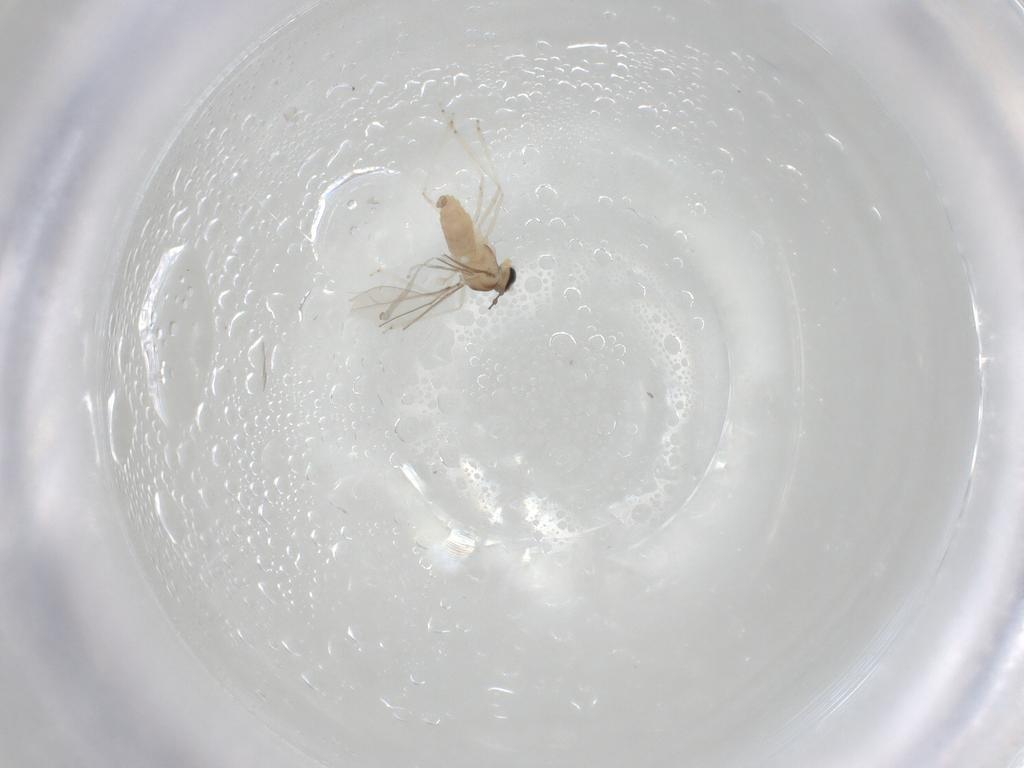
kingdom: Animalia
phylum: Arthropoda
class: Insecta
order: Diptera
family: Cecidomyiidae
